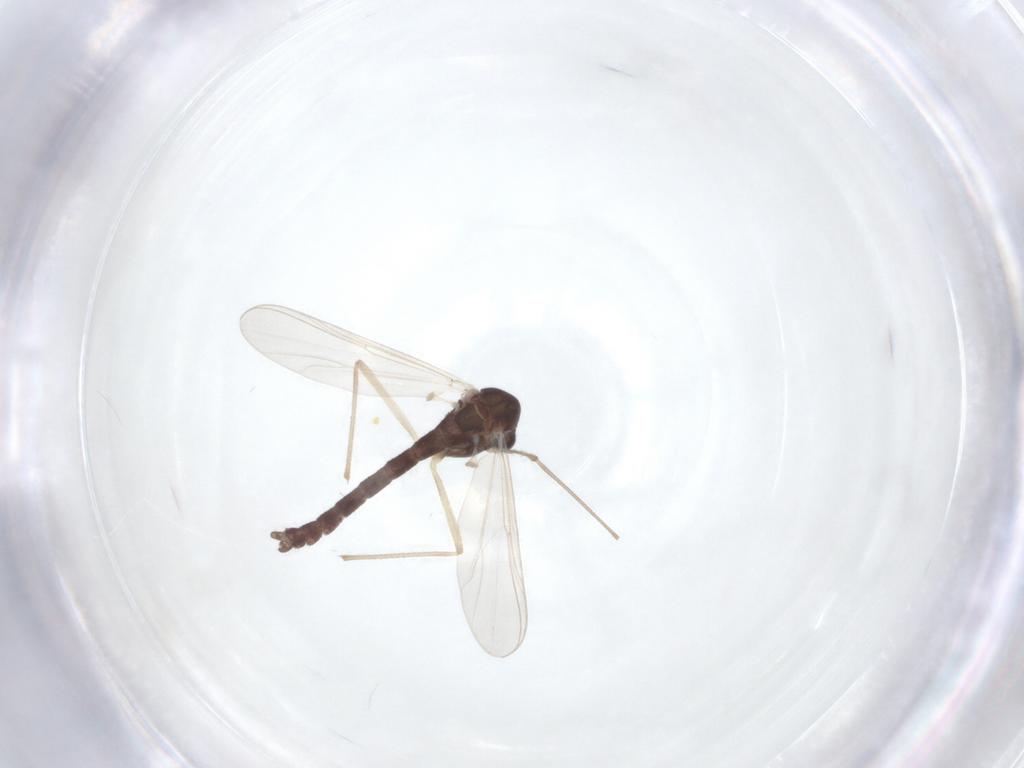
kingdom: Animalia
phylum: Arthropoda
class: Insecta
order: Diptera
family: Chironomidae
